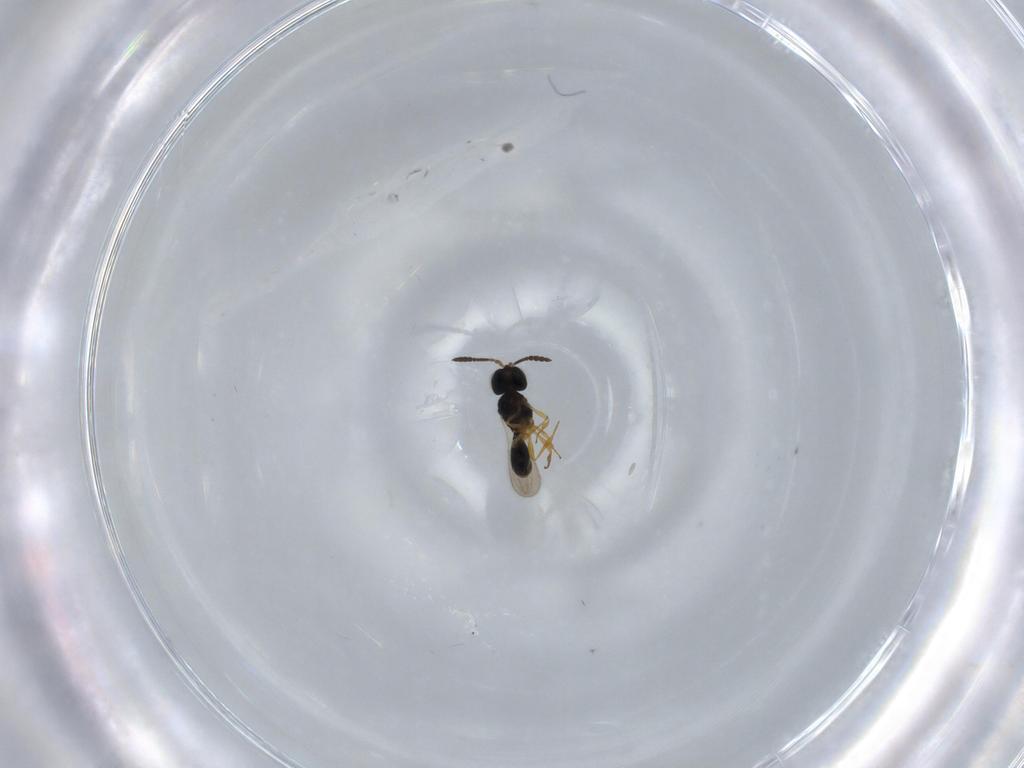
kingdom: Animalia
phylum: Arthropoda
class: Insecta
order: Hymenoptera
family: Scelionidae
